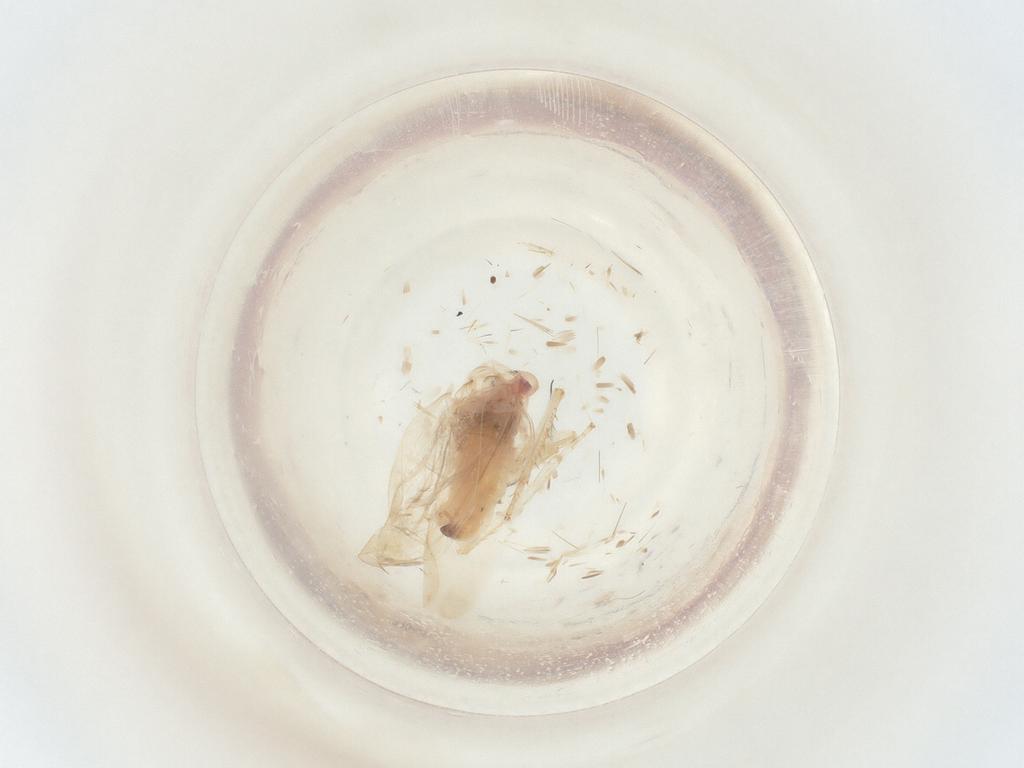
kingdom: Animalia
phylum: Arthropoda
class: Insecta
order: Hemiptera
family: Cicadellidae
